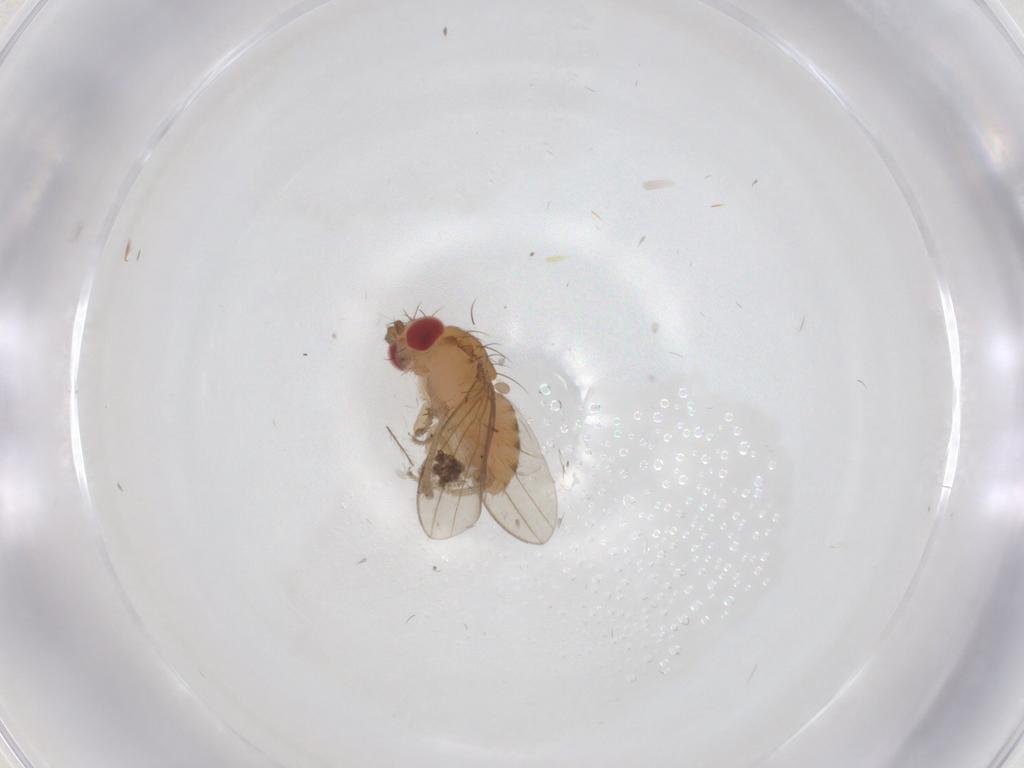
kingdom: Animalia
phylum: Arthropoda
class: Insecta
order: Diptera
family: Drosophilidae
